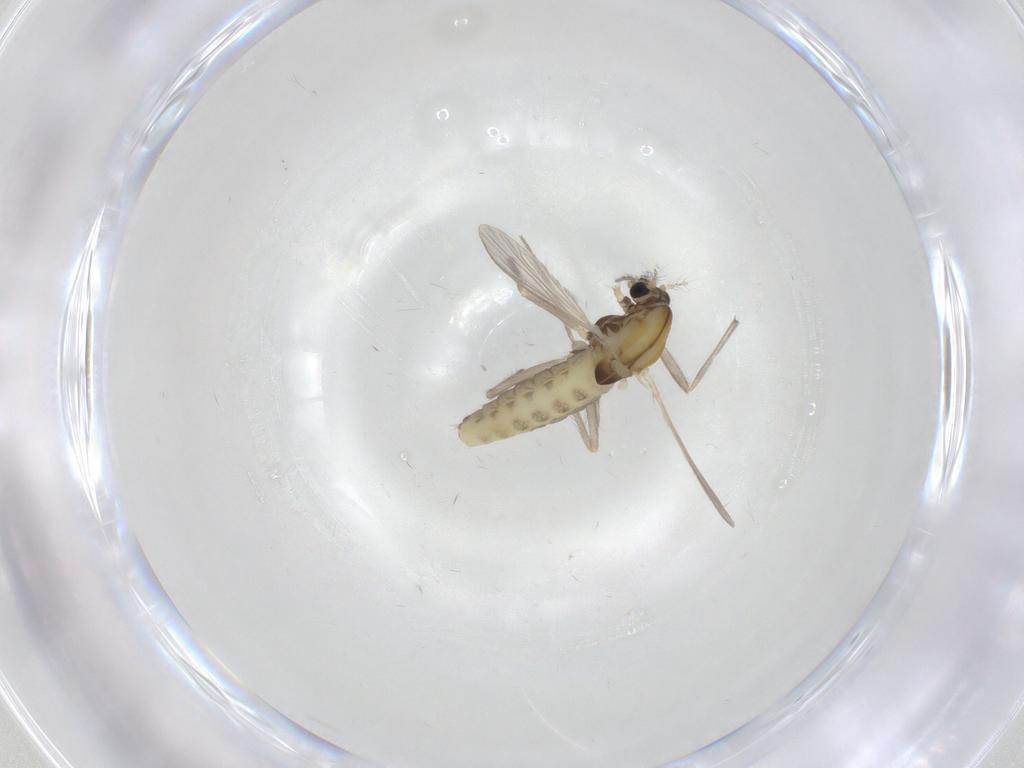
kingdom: Animalia
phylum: Arthropoda
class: Insecta
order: Diptera
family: Chironomidae
